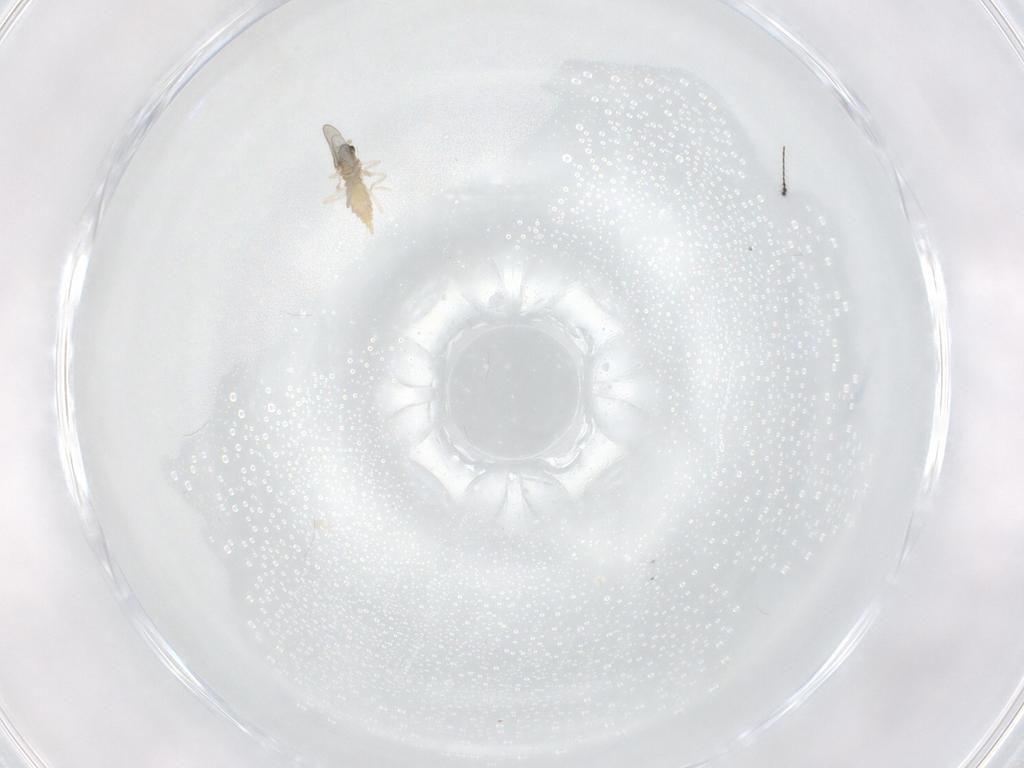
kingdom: Animalia
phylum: Arthropoda
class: Insecta
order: Diptera
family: Cecidomyiidae
